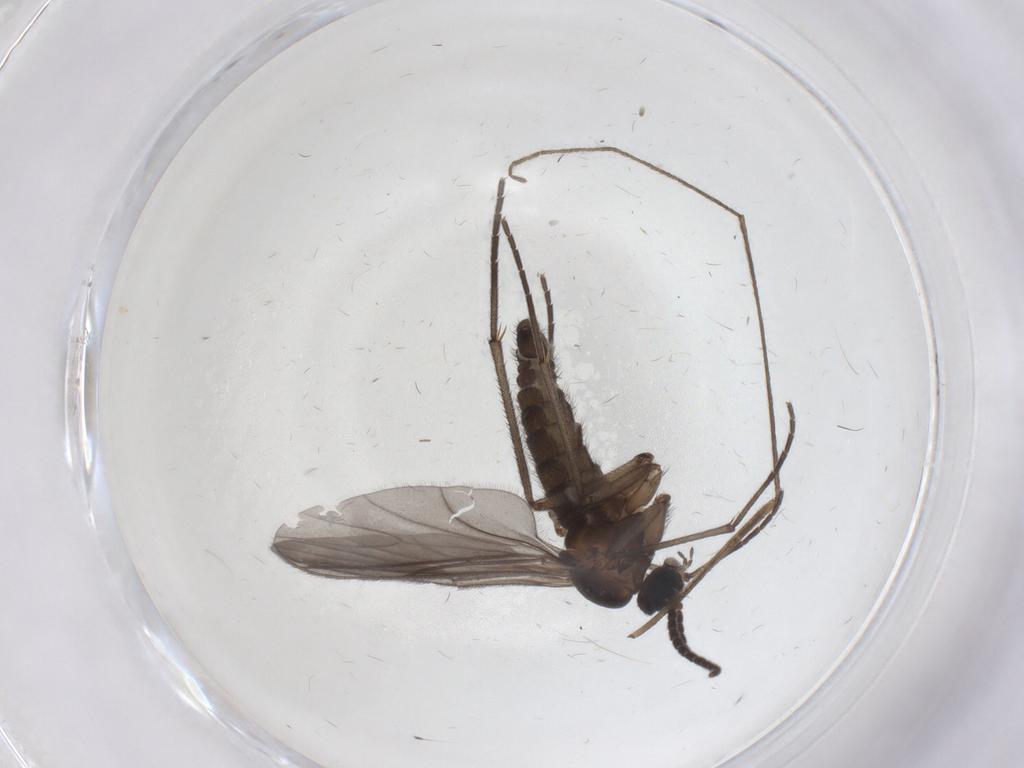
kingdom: Animalia
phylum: Arthropoda
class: Insecta
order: Diptera
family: Sciaridae
